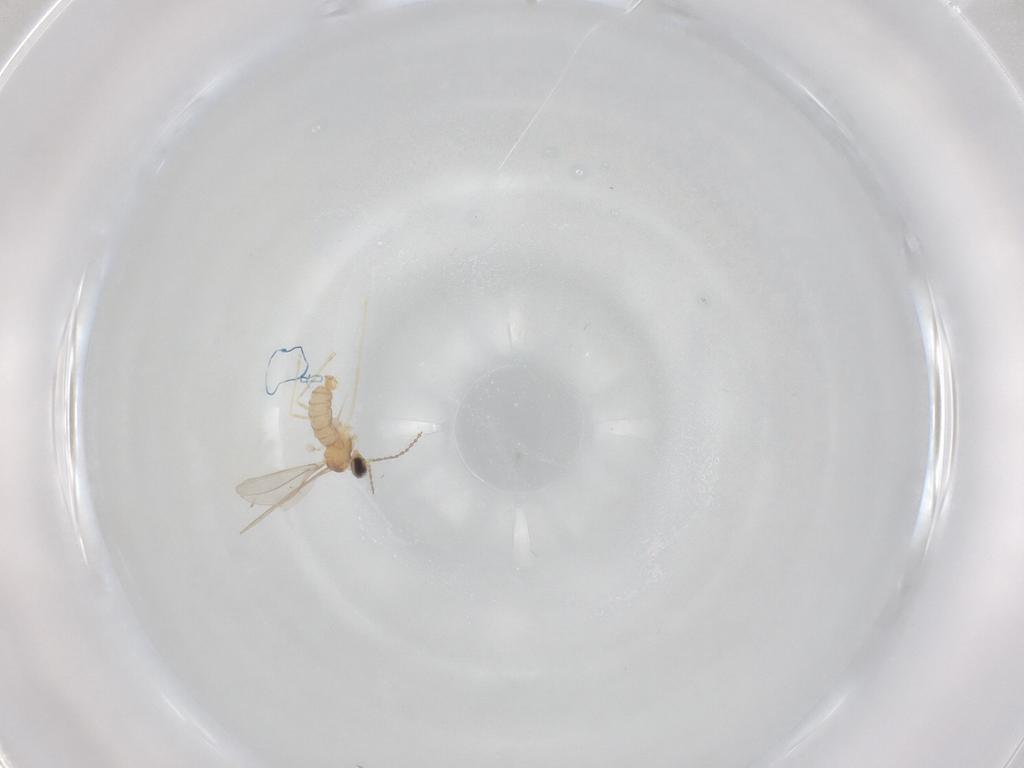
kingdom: Animalia
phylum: Arthropoda
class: Insecta
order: Diptera
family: Cecidomyiidae
